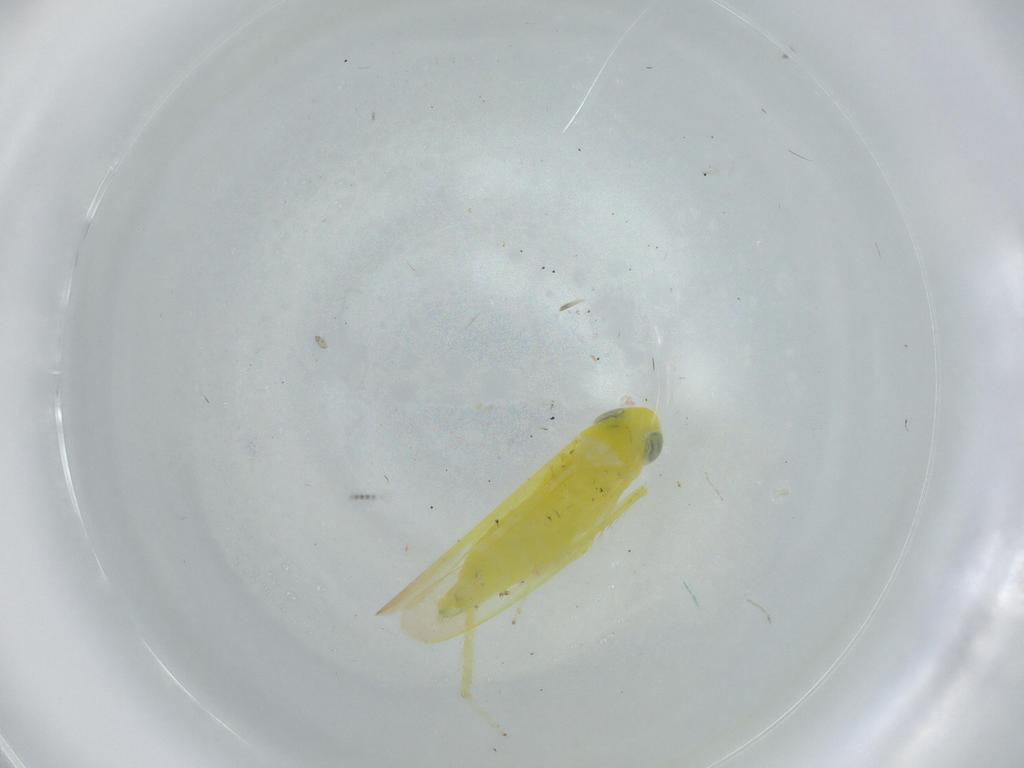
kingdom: Animalia
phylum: Arthropoda
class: Insecta
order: Hemiptera
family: Cicadellidae
